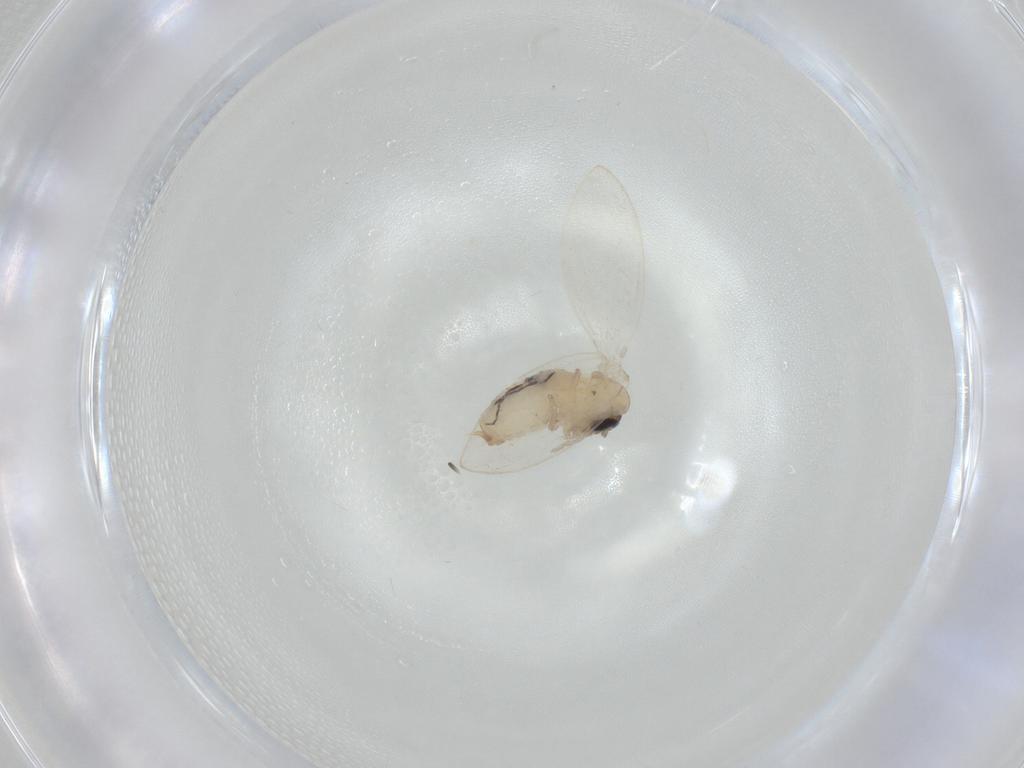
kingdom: Animalia
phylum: Arthropoda
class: Insecta
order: Diptera
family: Psychodidae
